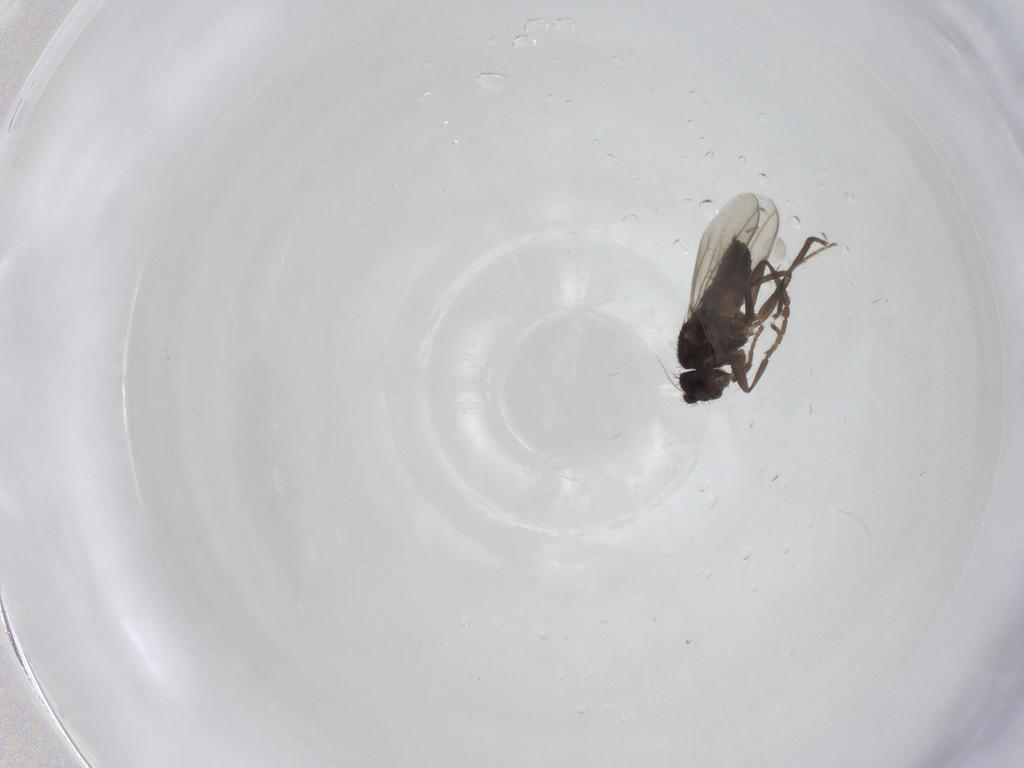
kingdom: Animalia
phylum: Arthropoda
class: Insecta
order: Diptera
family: Sphaeroceridae
